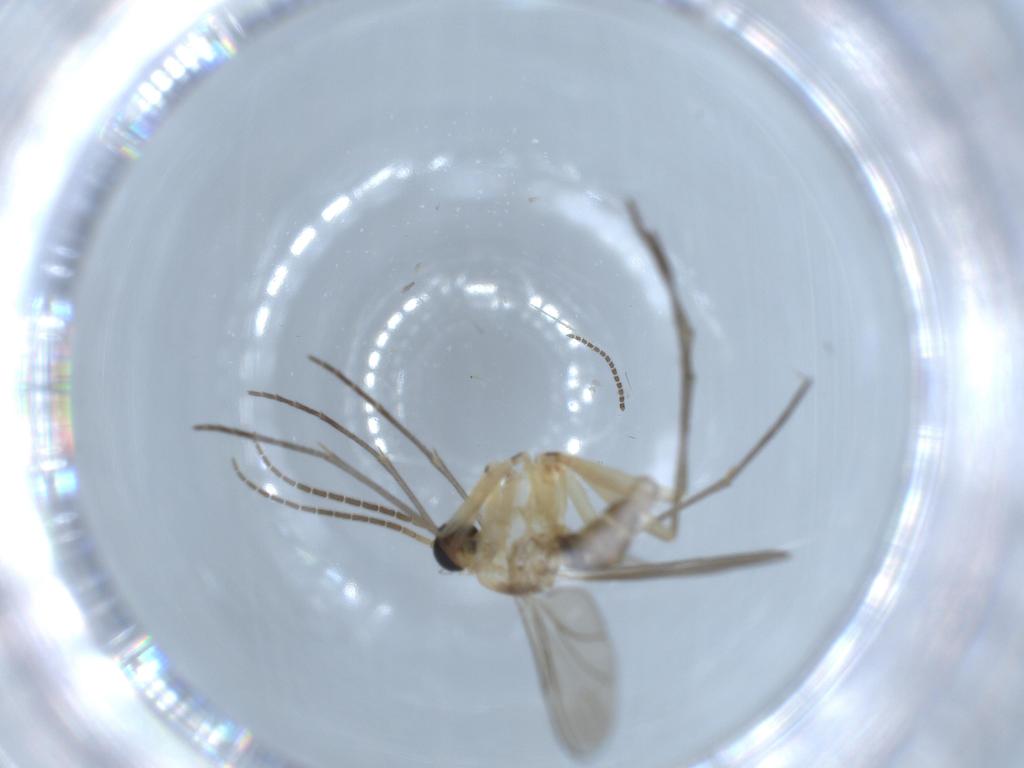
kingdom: Animalia
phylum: Arthropoda
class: Insecta
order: Diptera
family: Sciaridae
